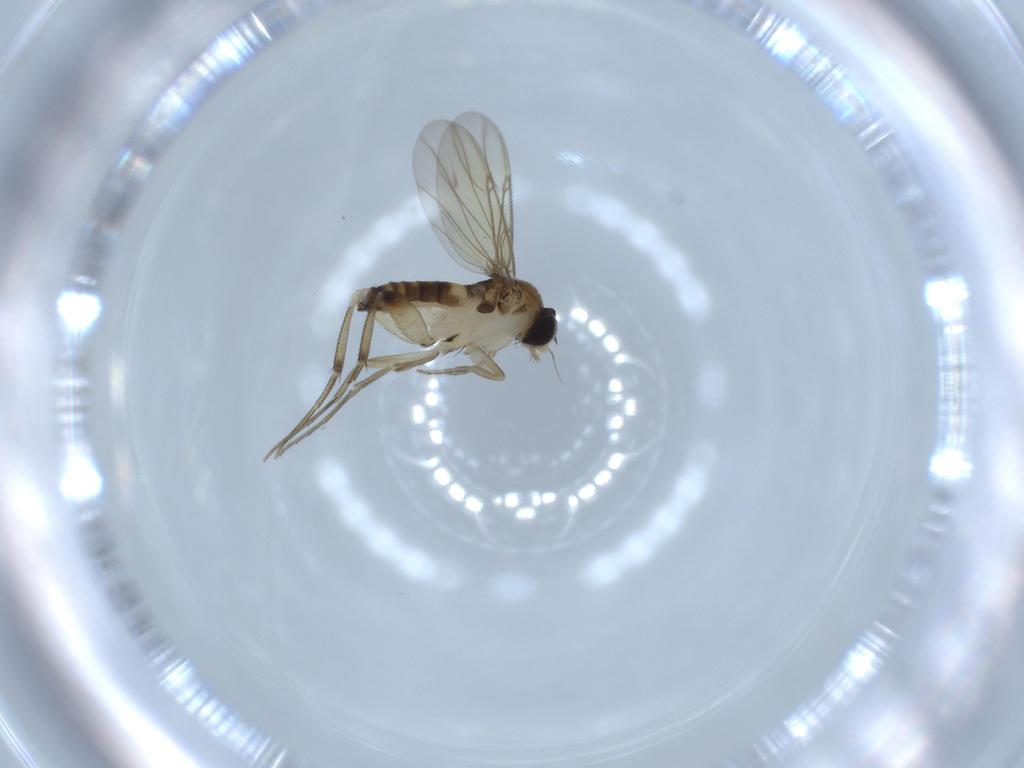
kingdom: Animalia
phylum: Arthropoda
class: Insecta
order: Diptera
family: Phoridae
